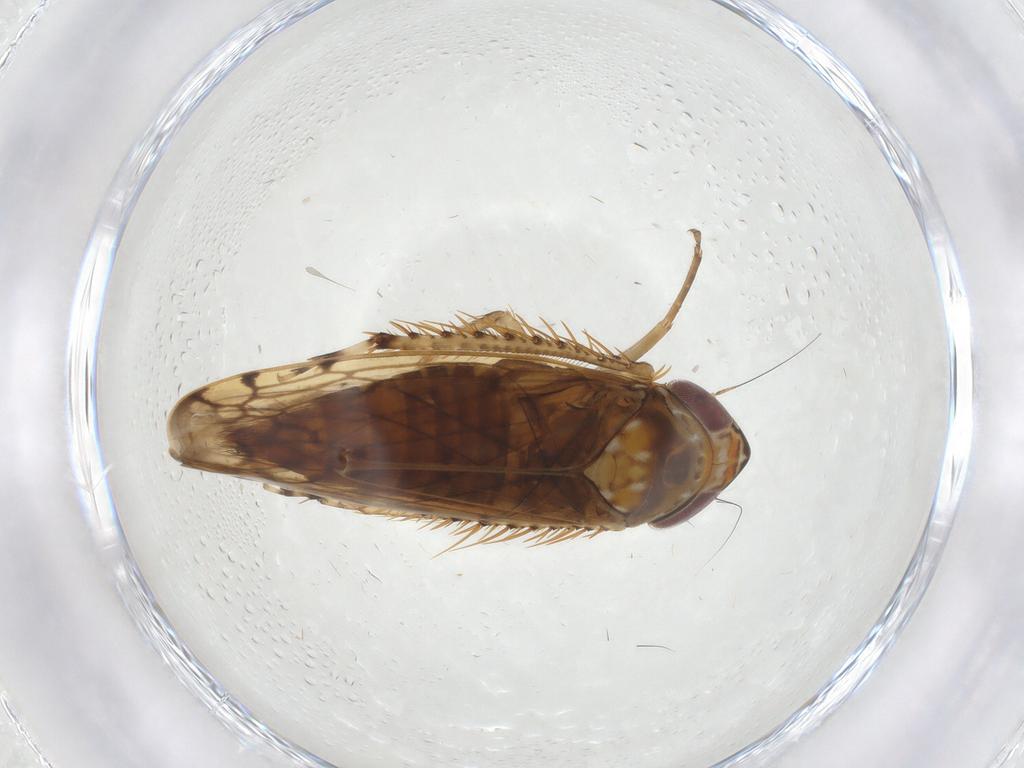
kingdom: Animalia
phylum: Arthropoda
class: Insecta
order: Hemiptera
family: Cicadellidae
